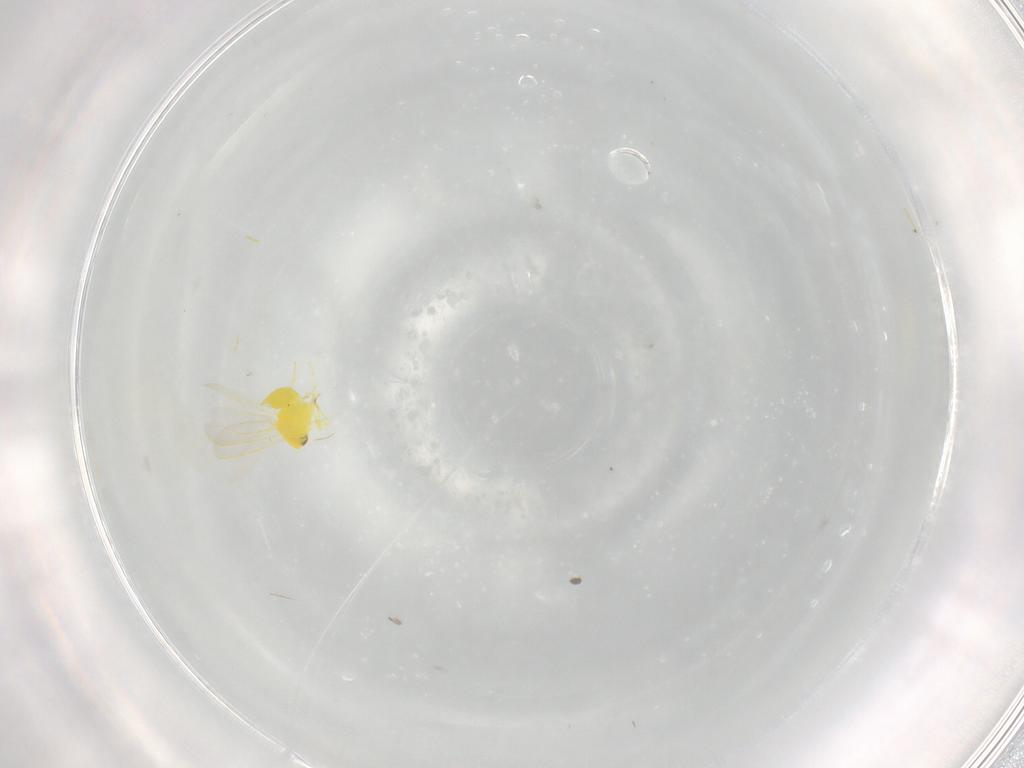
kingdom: Animalia
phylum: Arthropoda
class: Insecta
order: Hemiptera
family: Aleyrodidae
